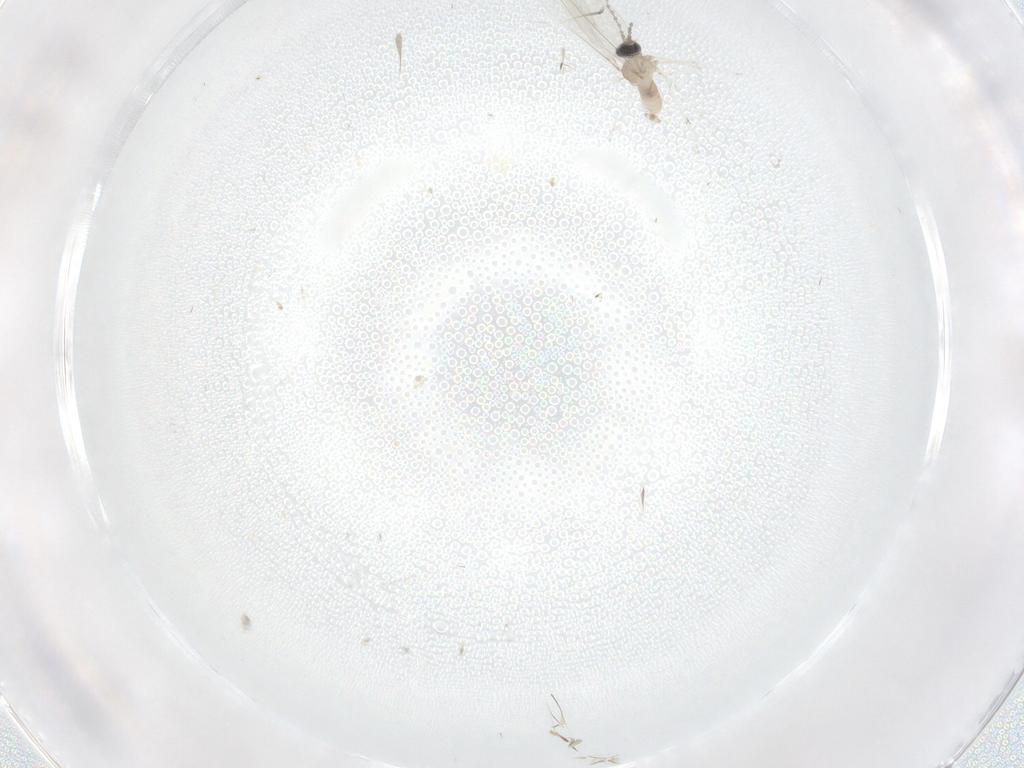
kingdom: Animalia
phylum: Arthropoda
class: Insecta
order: Diptera
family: Cecidomyiidae
